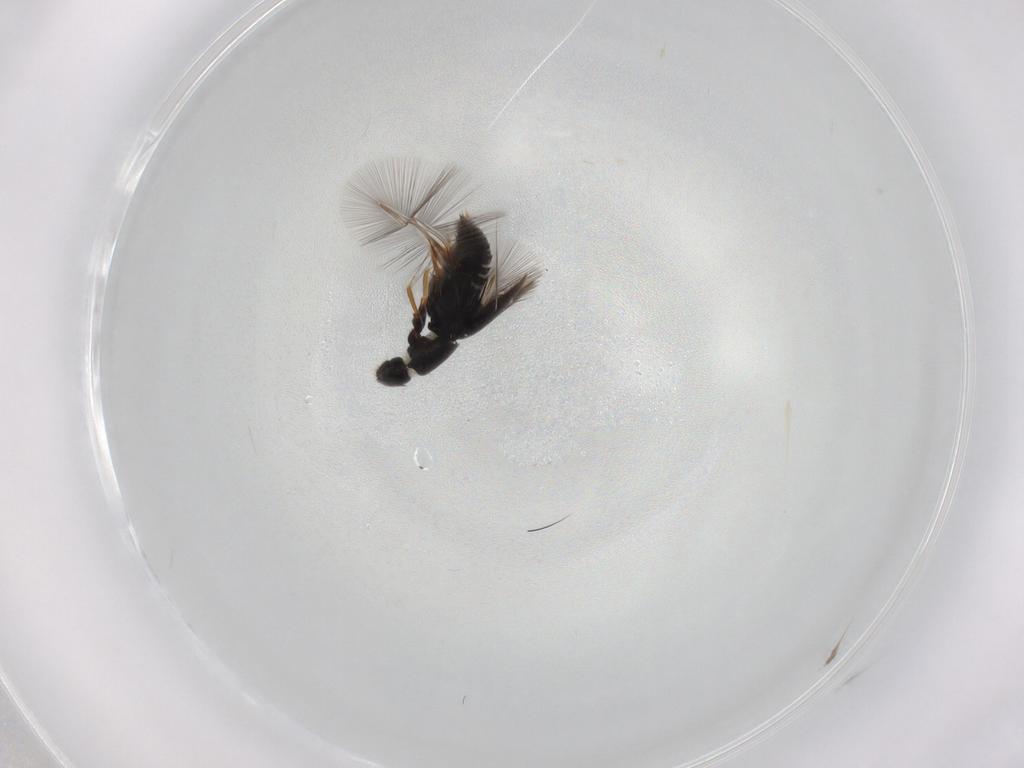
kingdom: Animalia
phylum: Arthropoda
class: Insecta
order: Coleoptera
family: Ptiliidae
